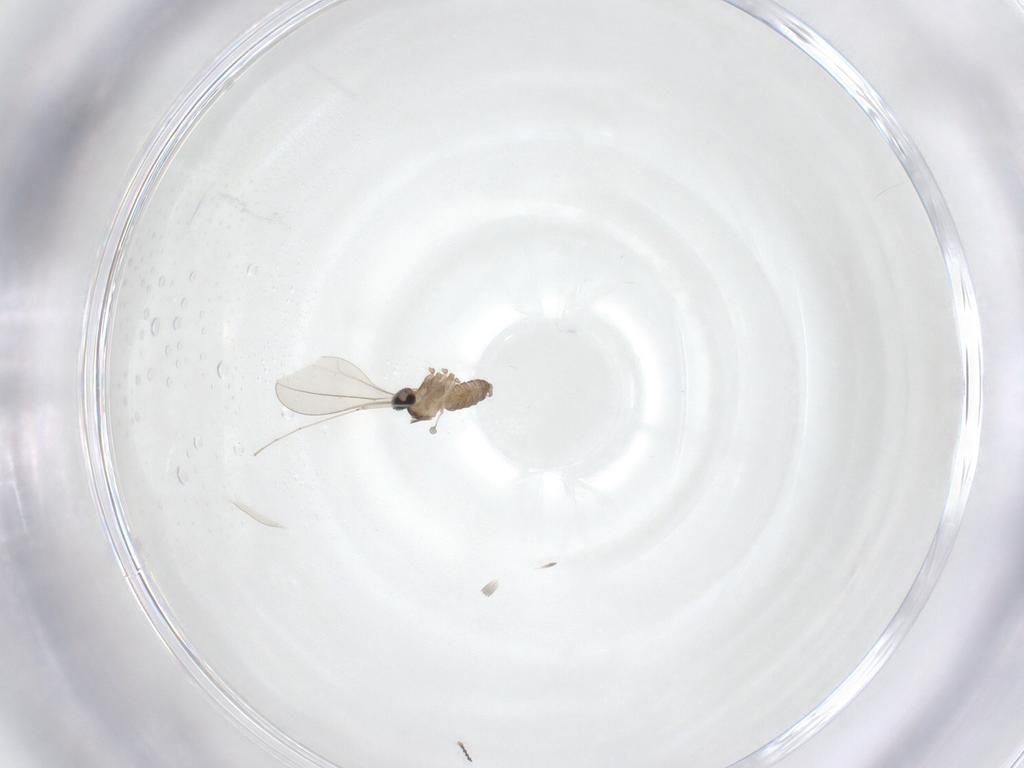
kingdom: Animalia
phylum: Arthropoda
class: Insecta
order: Diptera
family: Cecidomyiidae
